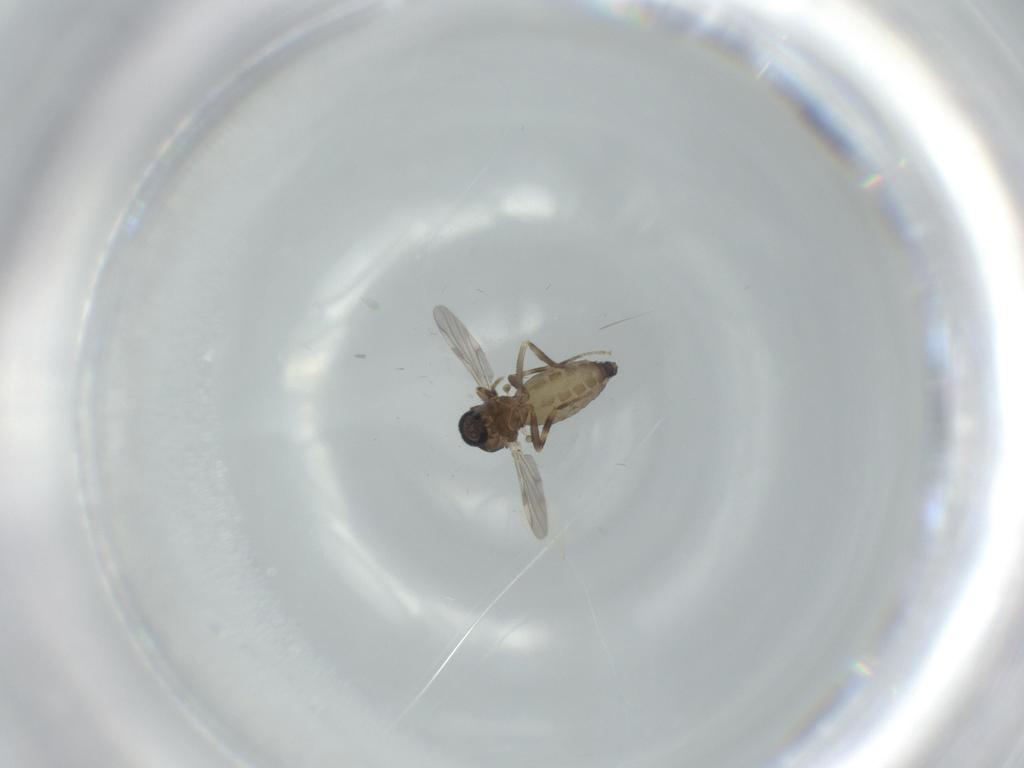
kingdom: Animalia
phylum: Arthropoda
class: Insecta
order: Diptera
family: Ceratopogonidae
